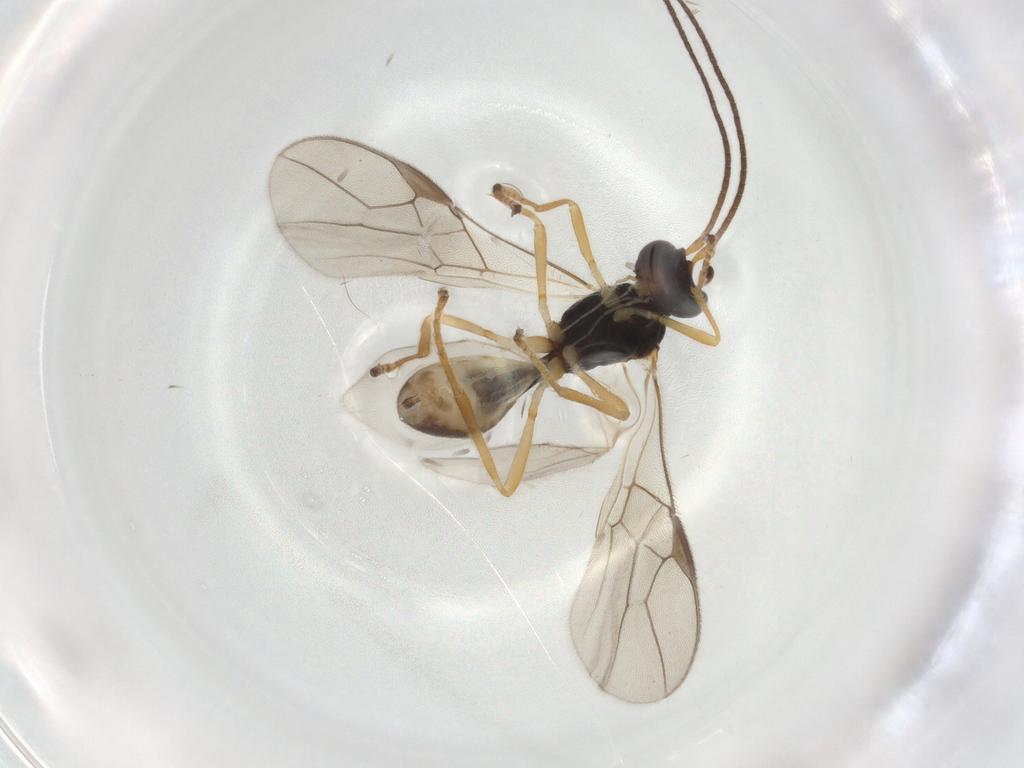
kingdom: Animalia
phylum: Arthropoda
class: Insecta
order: Hymenoptera
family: Braconidae
